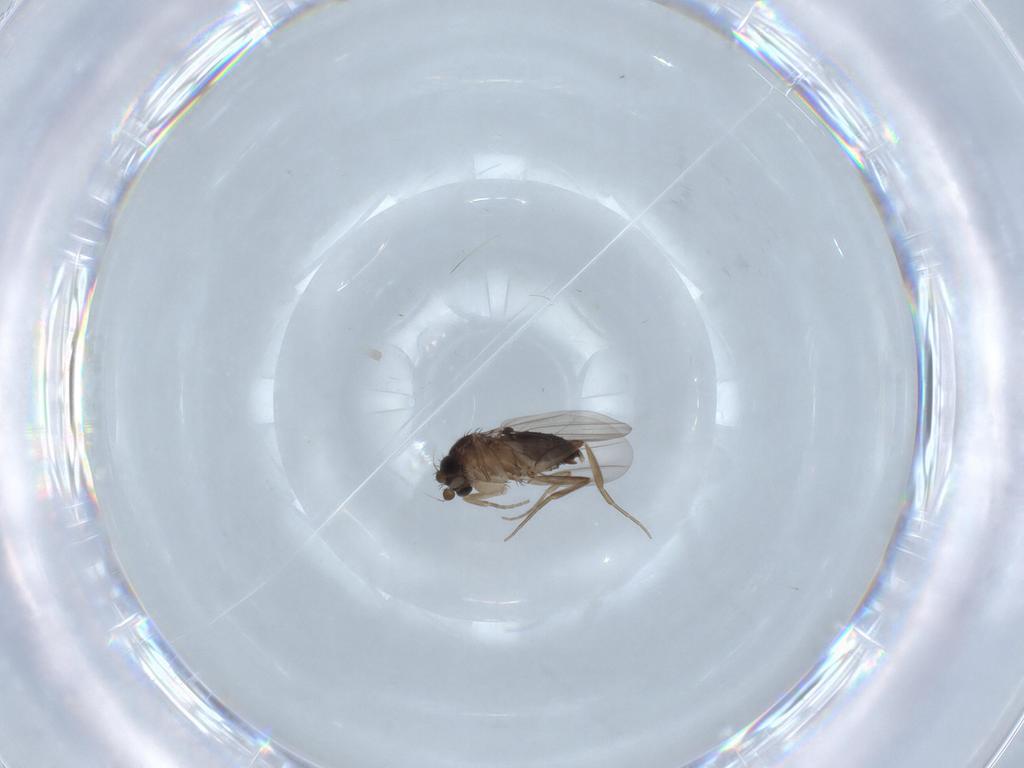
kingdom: Animalia
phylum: Arthropoda
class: Insecta
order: Diptera
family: Phoridae
